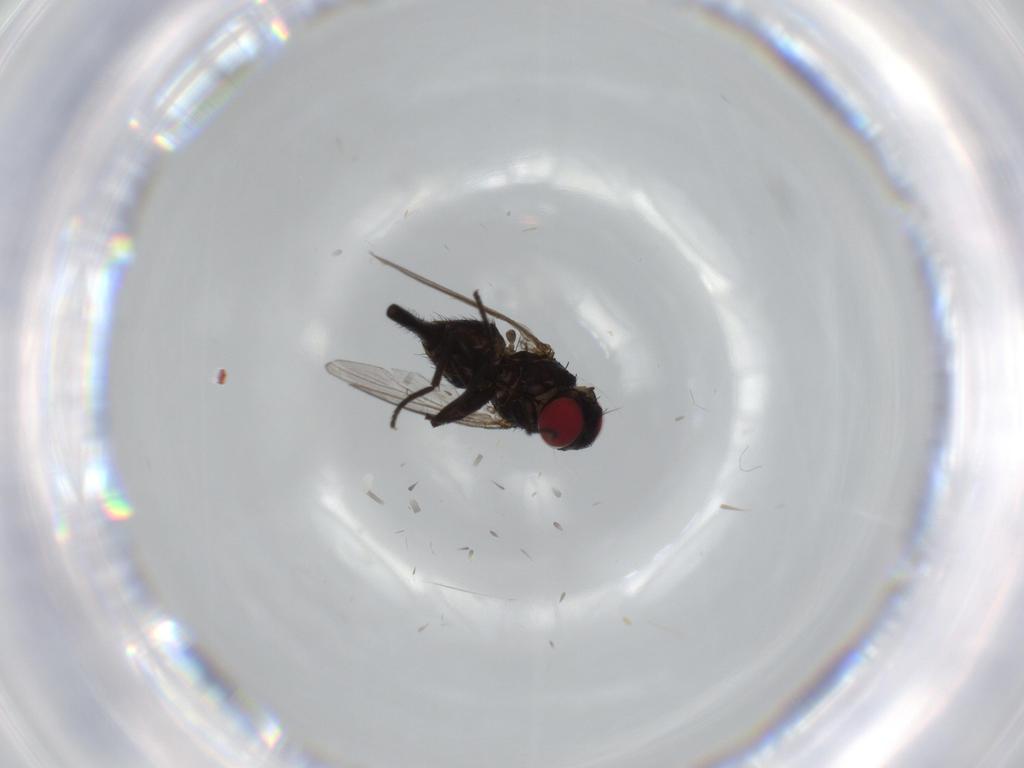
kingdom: Animalia
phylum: Arthropoda
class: Insecta
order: Diptera
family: Agromyzidae
